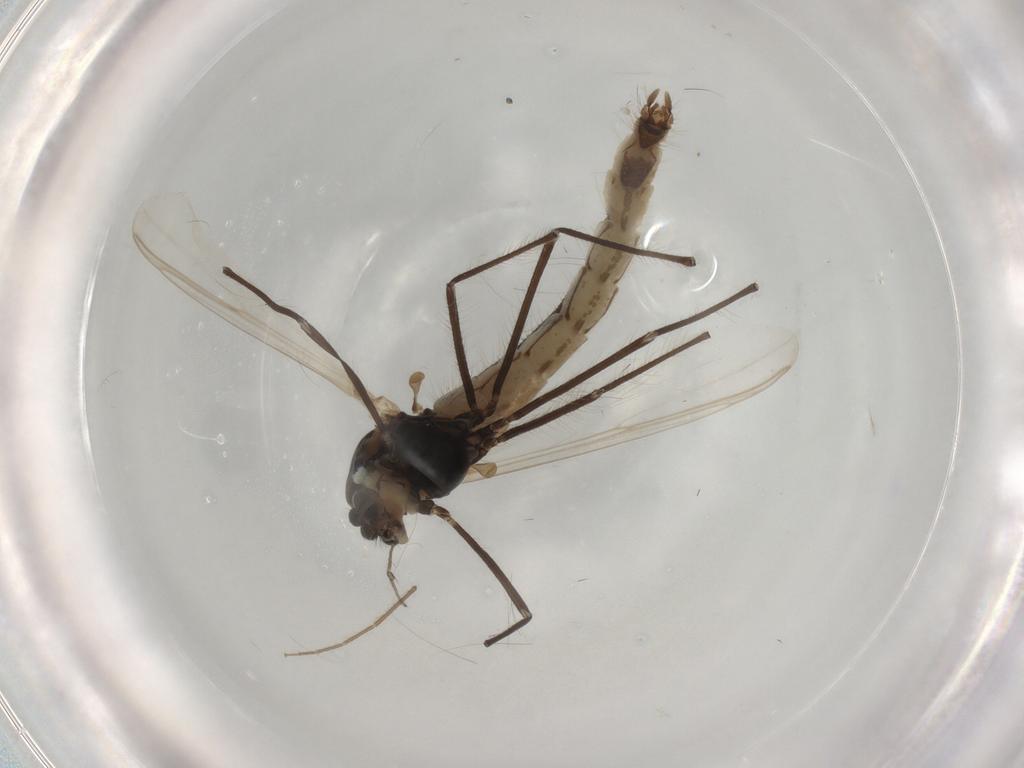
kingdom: Animalia
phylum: Arthropoda
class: Insecta
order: Diptera
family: Chironomidae
